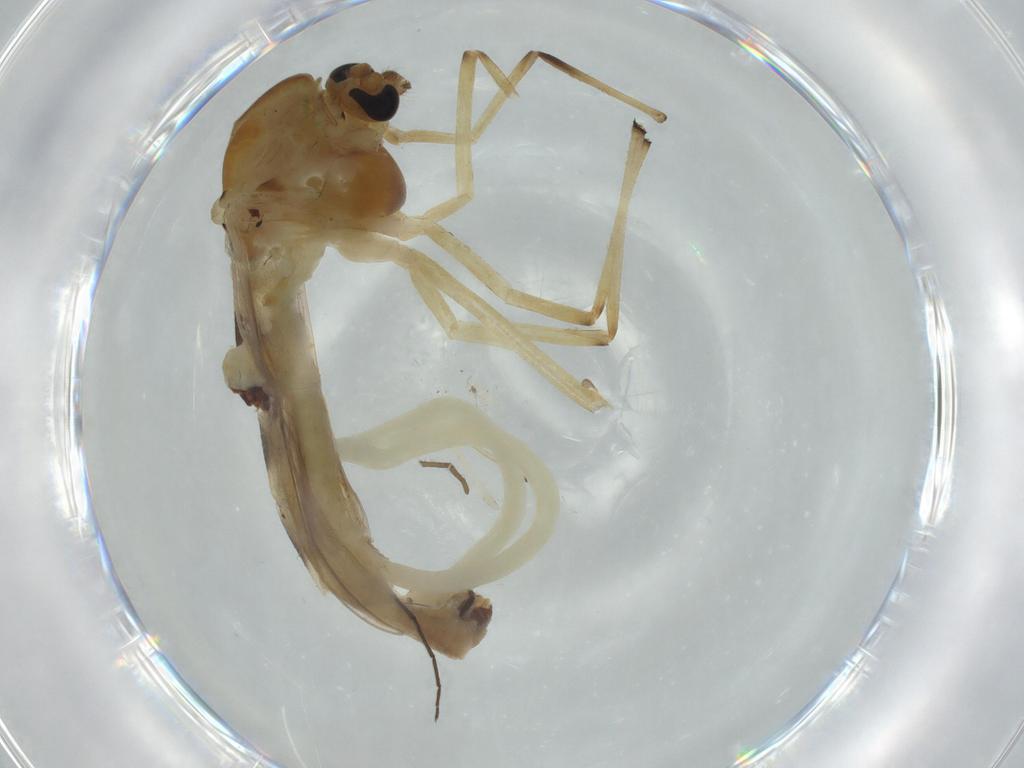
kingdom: Animalia
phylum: Arthropoda
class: Insecta
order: Diptera
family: Chironomidae
